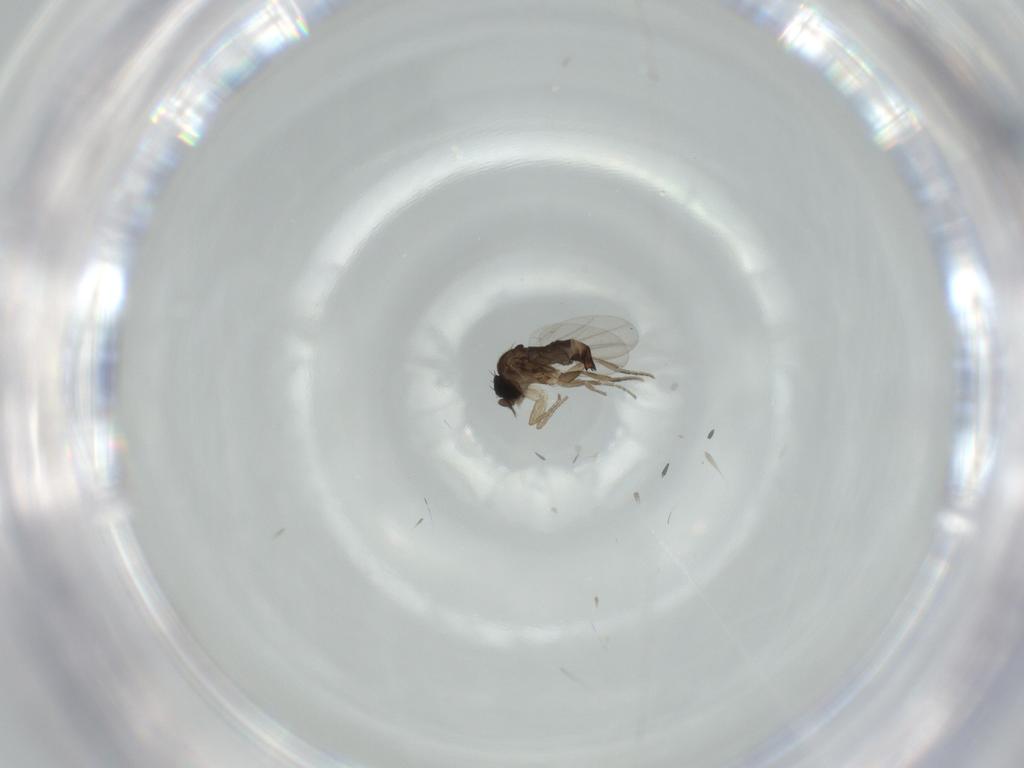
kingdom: Animalia
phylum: Arthropoda
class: Insecta
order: Diptera
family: Phoridae
